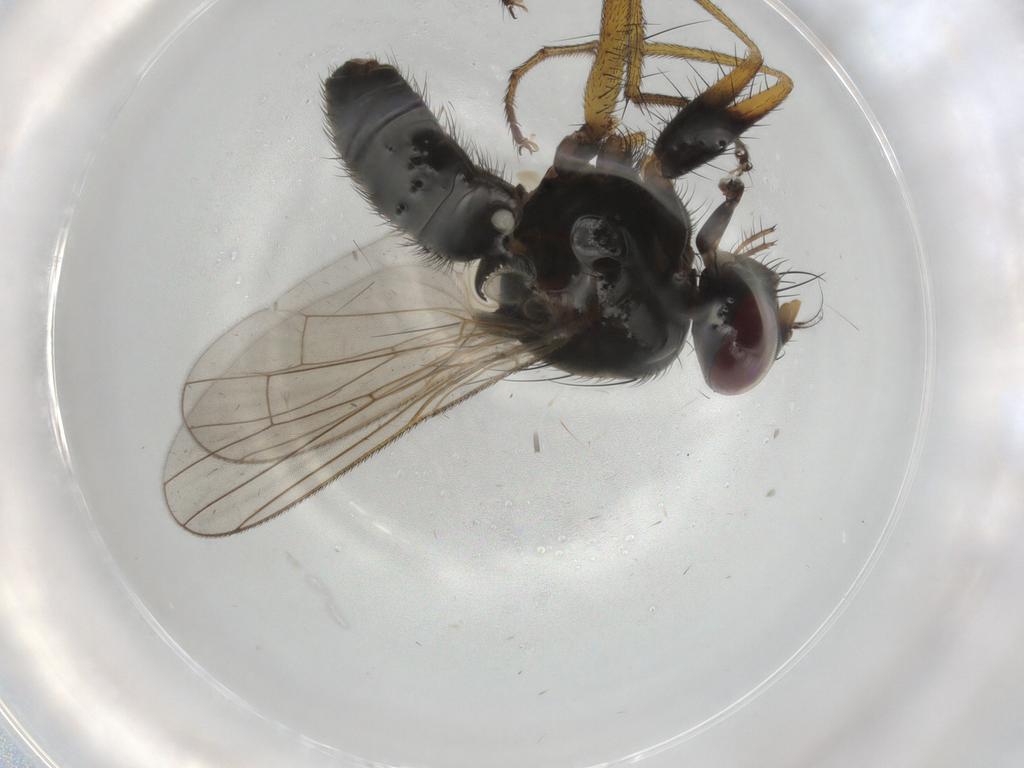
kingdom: Animalia
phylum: Arthropoda
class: Insecta
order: Diptera
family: Muscidae
